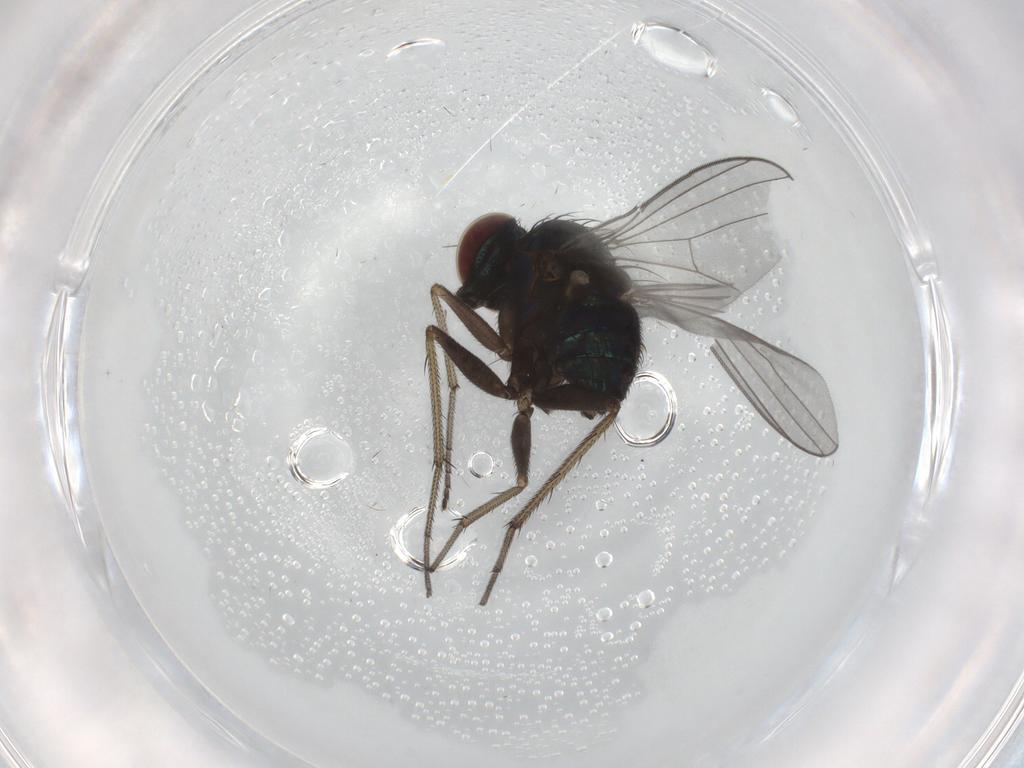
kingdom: Animalia
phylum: Arthropoda
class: Insecta
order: Diptera
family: Dolichopodidae
